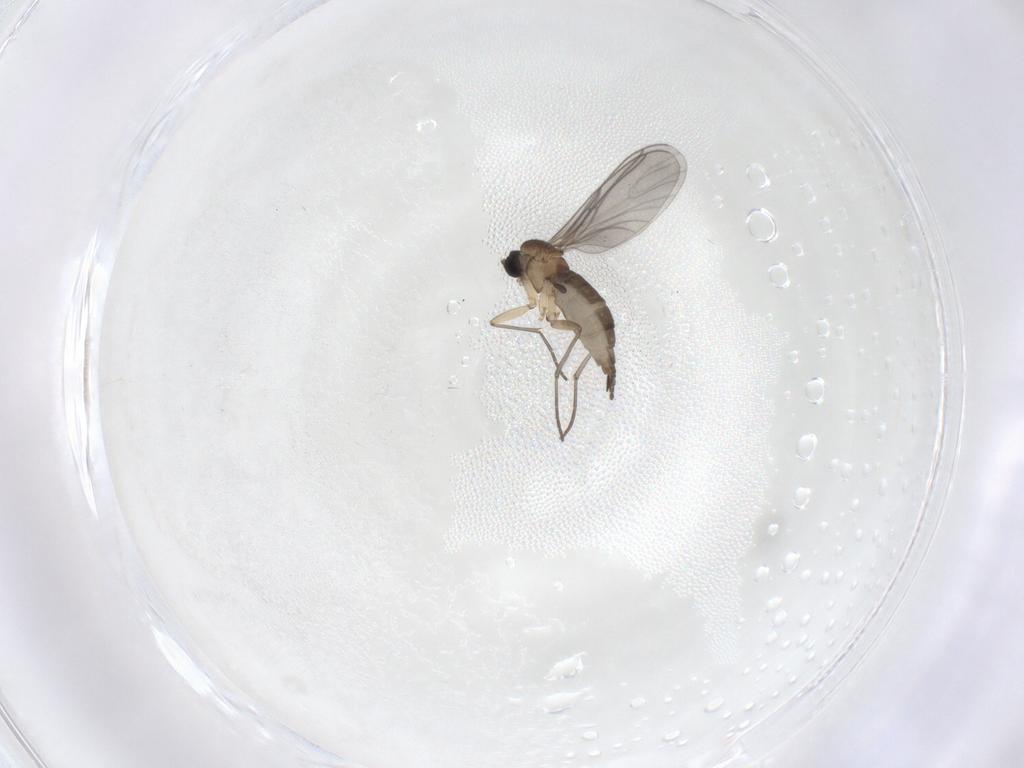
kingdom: Animalia
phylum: Arthropoda
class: Insecta
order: Diptera
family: Sciaridae
